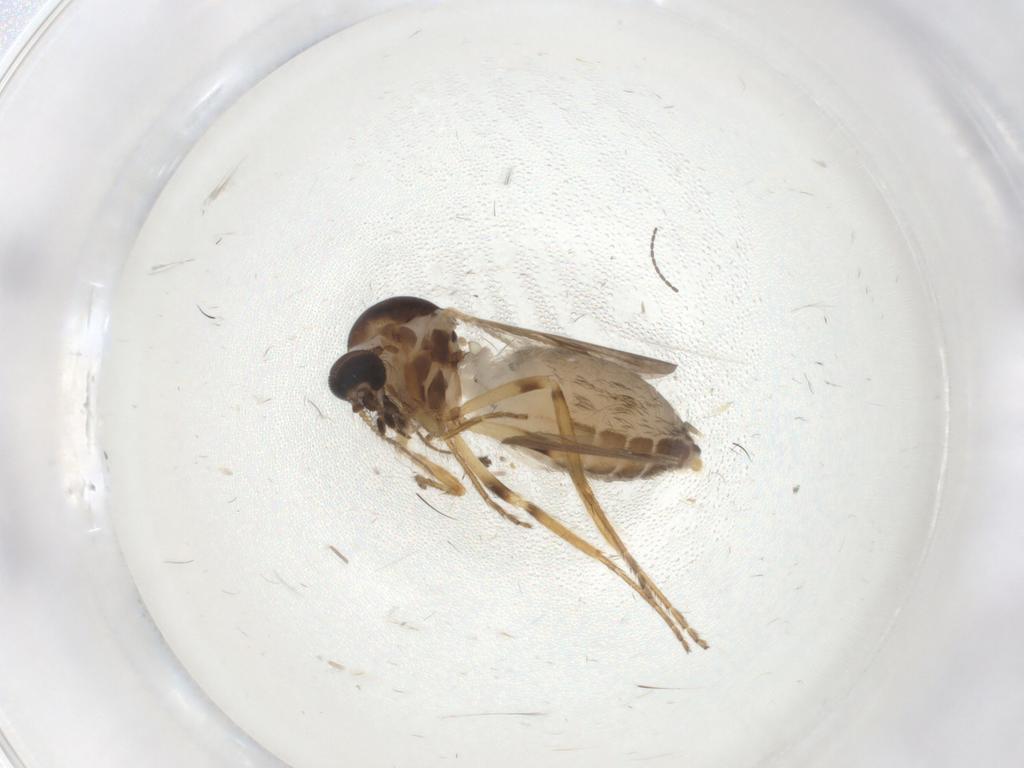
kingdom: Animalia
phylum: Arthropoda
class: Insecta
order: Diptera
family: Ceratopogonidae
